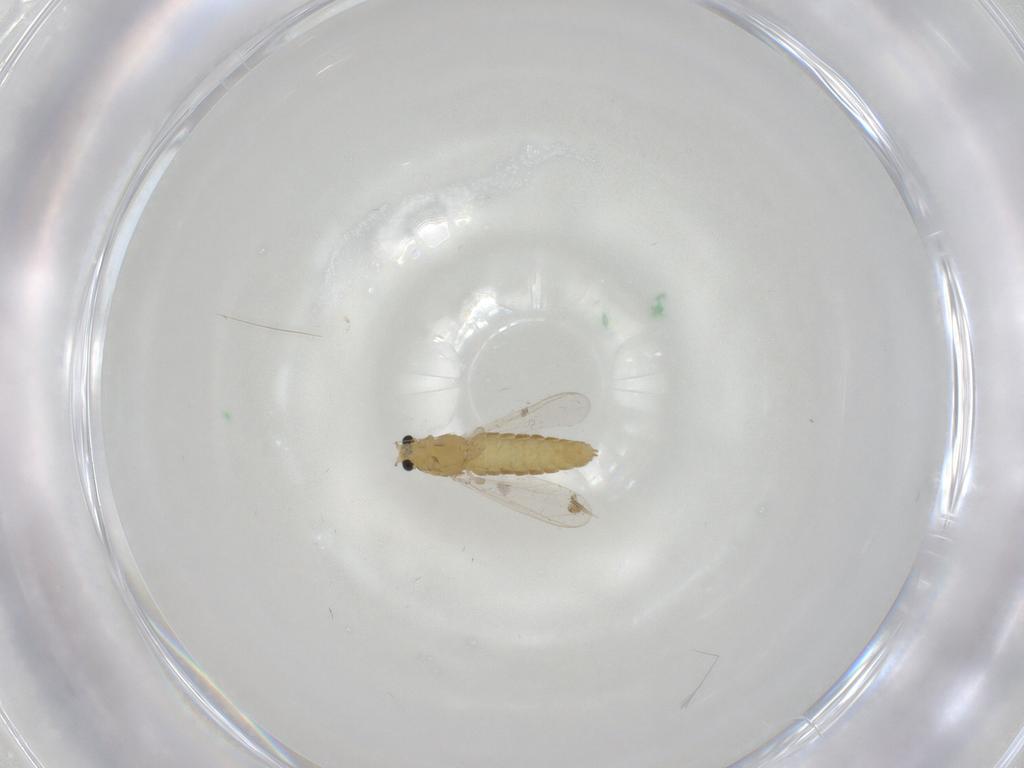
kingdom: Animalia
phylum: Arthropoda
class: Insecta
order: Diptera
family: Chironomidae
